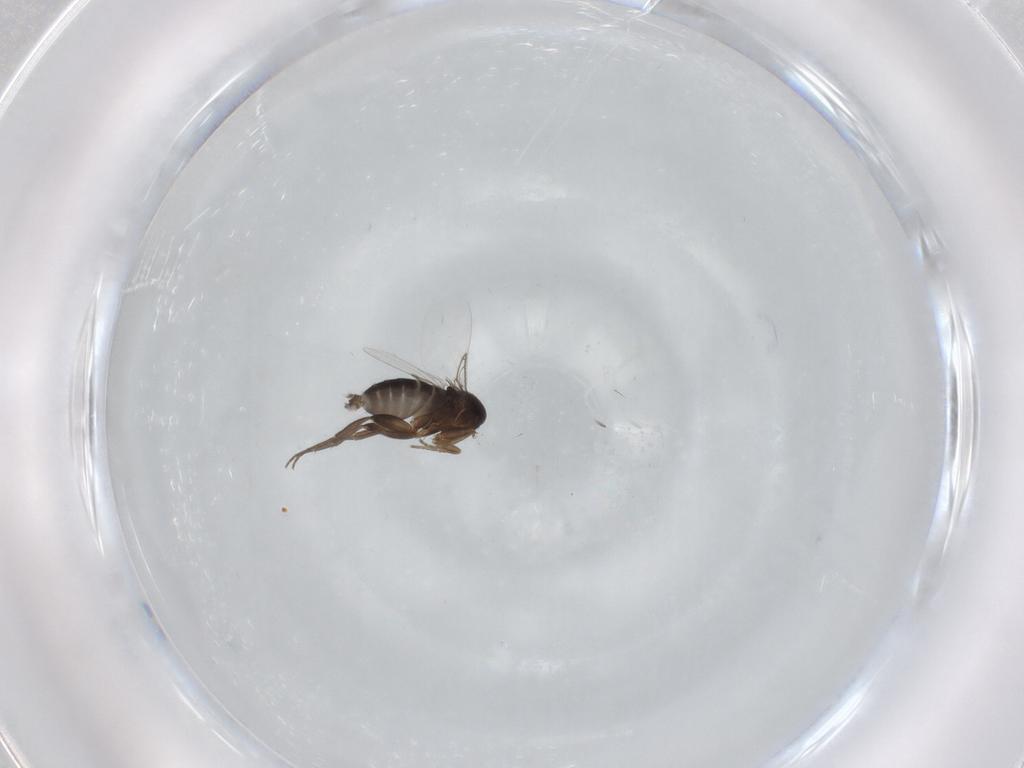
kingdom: Animalia
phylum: Arthropoda
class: Insecta
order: Diptera
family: Phoridae
